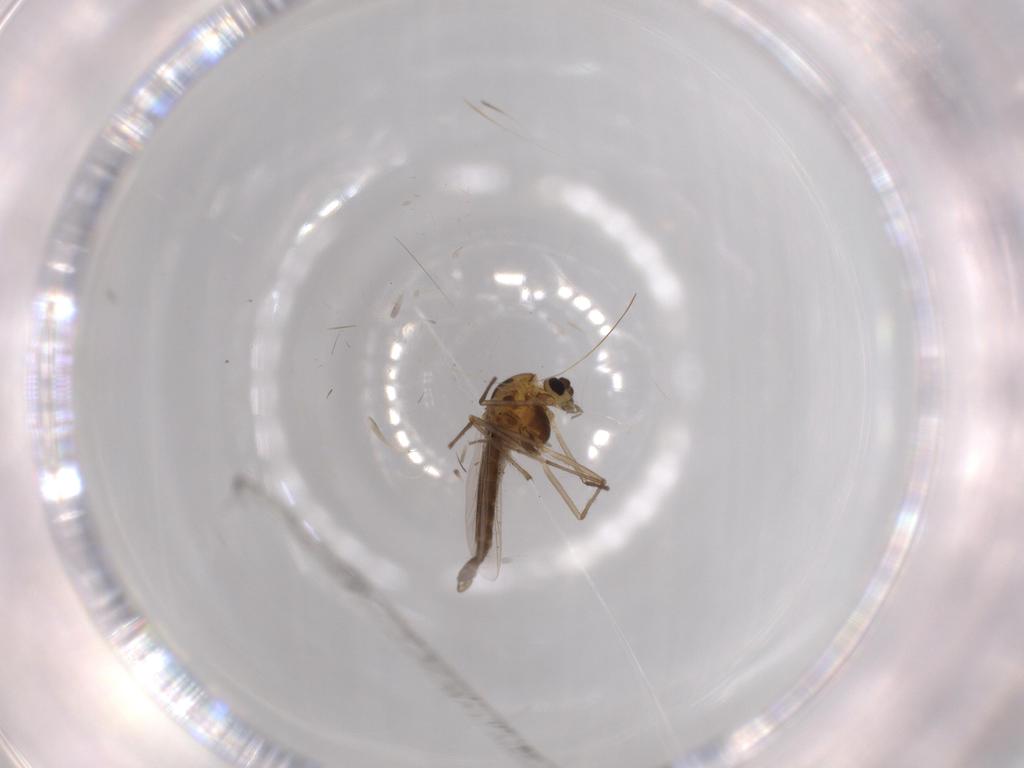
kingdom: Animalia
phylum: Arthropoda
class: Insecta
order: Diptera
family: Chironomidae
